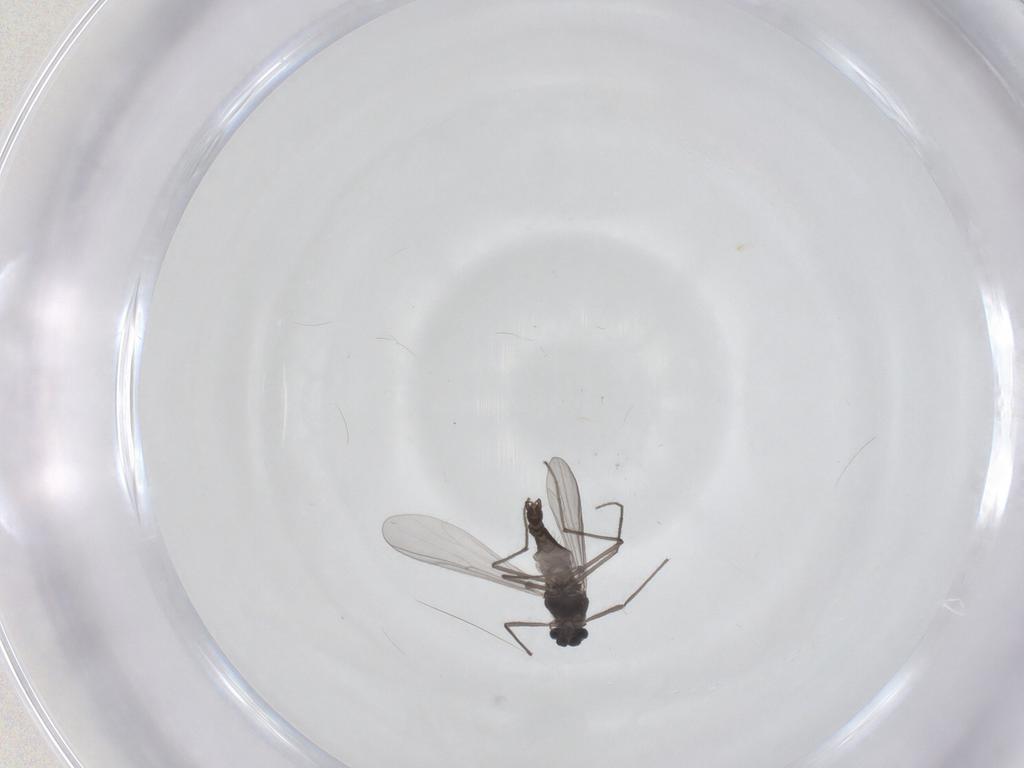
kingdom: Animalia
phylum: Arthropoda
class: Insecta
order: Diptera
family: Chironomidae
